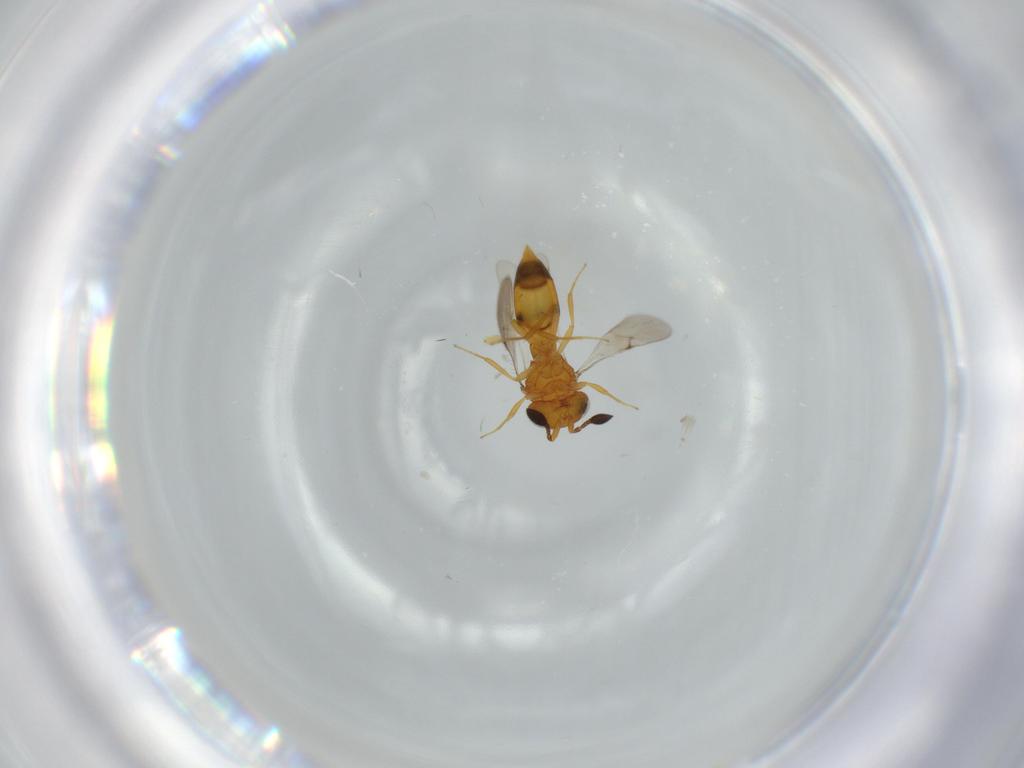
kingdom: Animalia
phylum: Arthropoda
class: Insecta
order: Hymenoptera
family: Scelionidae
